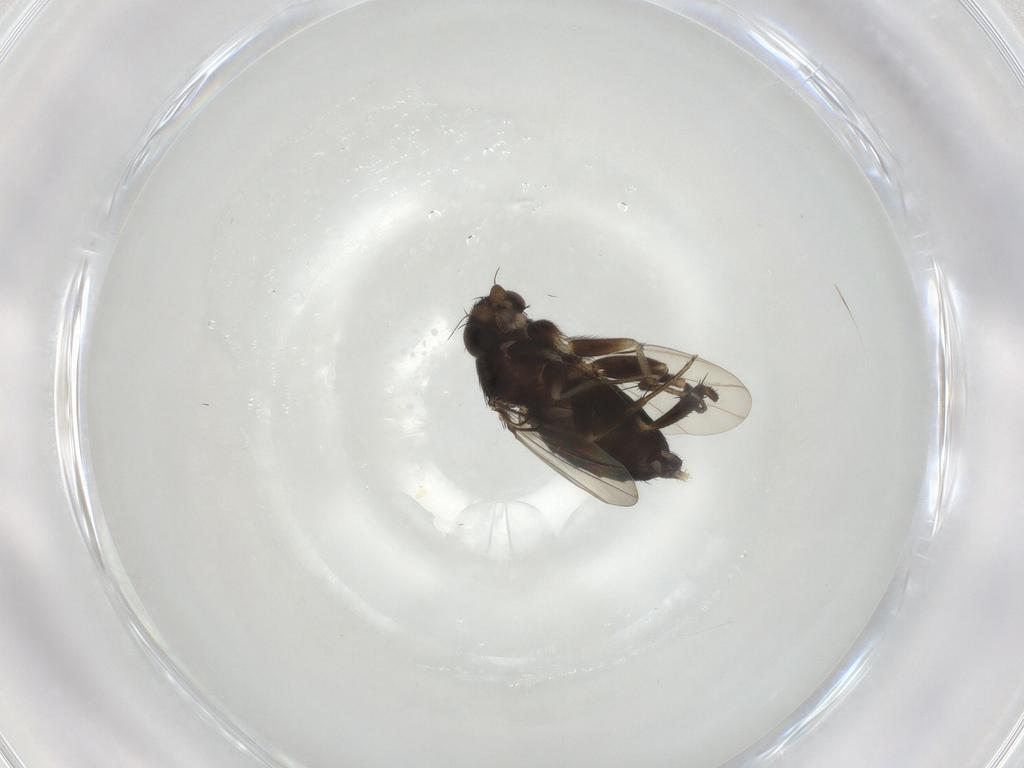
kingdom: Animalia
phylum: Arthropoda
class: Insecta
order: Diptera
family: Phoridae
